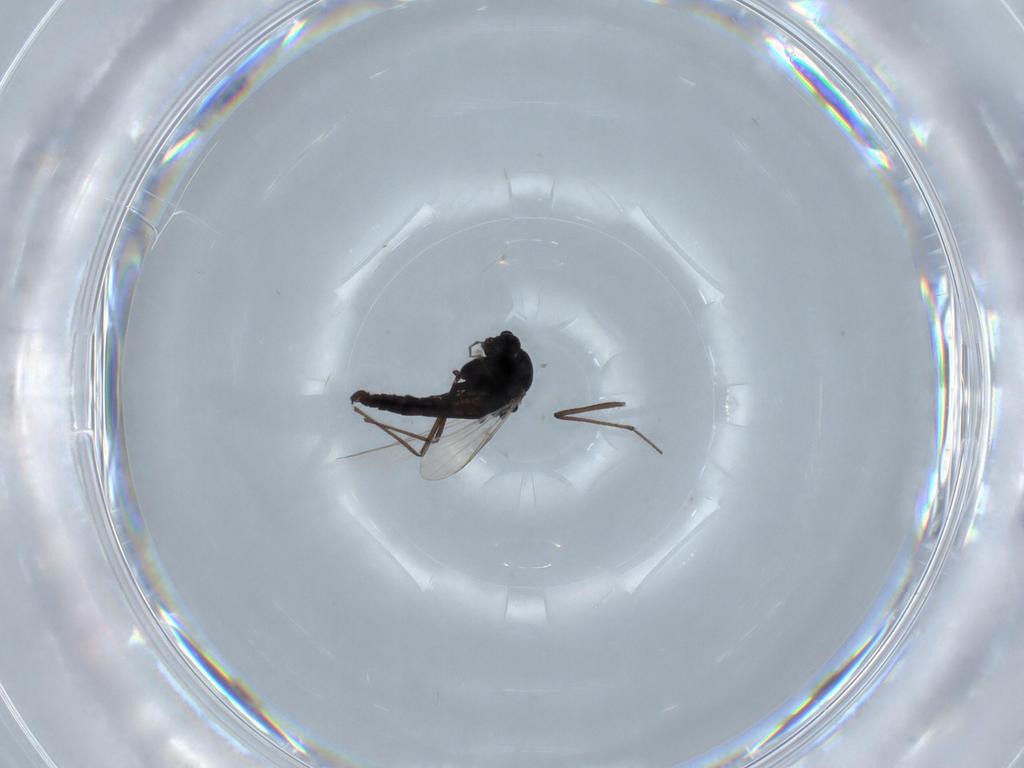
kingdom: Animalia
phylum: Arthropoda
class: Insecta
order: Diptera
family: Chironomidae
